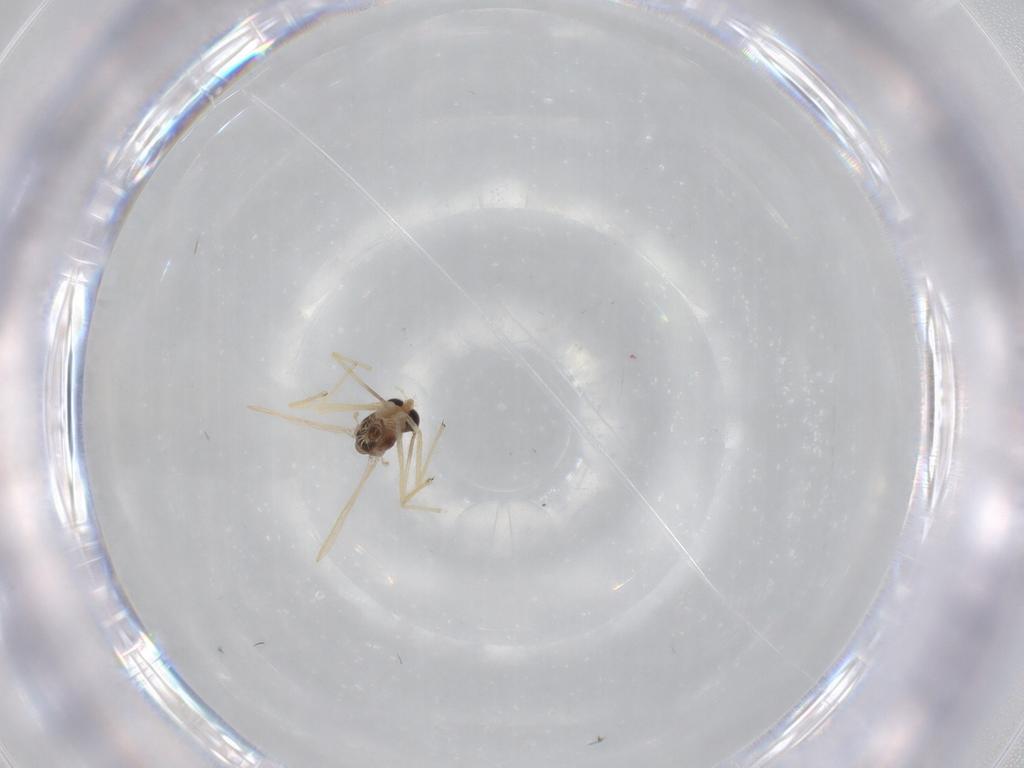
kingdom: Animalia
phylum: Arthropoda
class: Insecta
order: Diptera
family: Chironomidae
